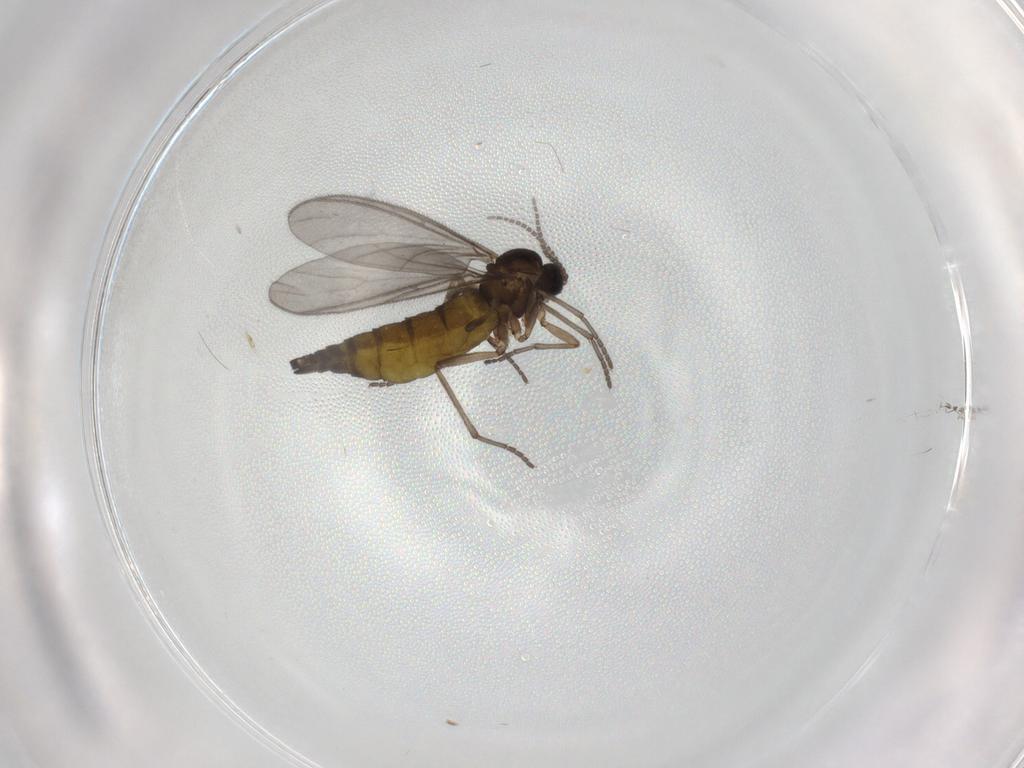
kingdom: Animalia
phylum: Arthropoda
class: Insecta
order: Diptera
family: Sciaridae
